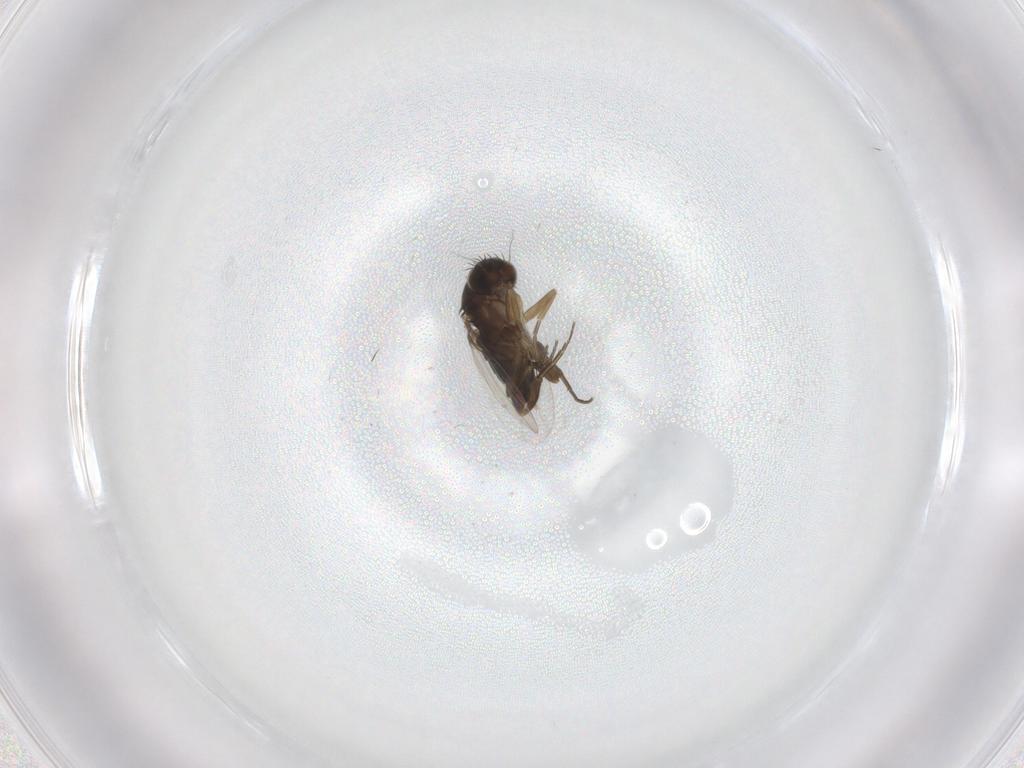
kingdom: Animalia
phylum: Arthropoda
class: Insecta
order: Diptera
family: Phoridae
